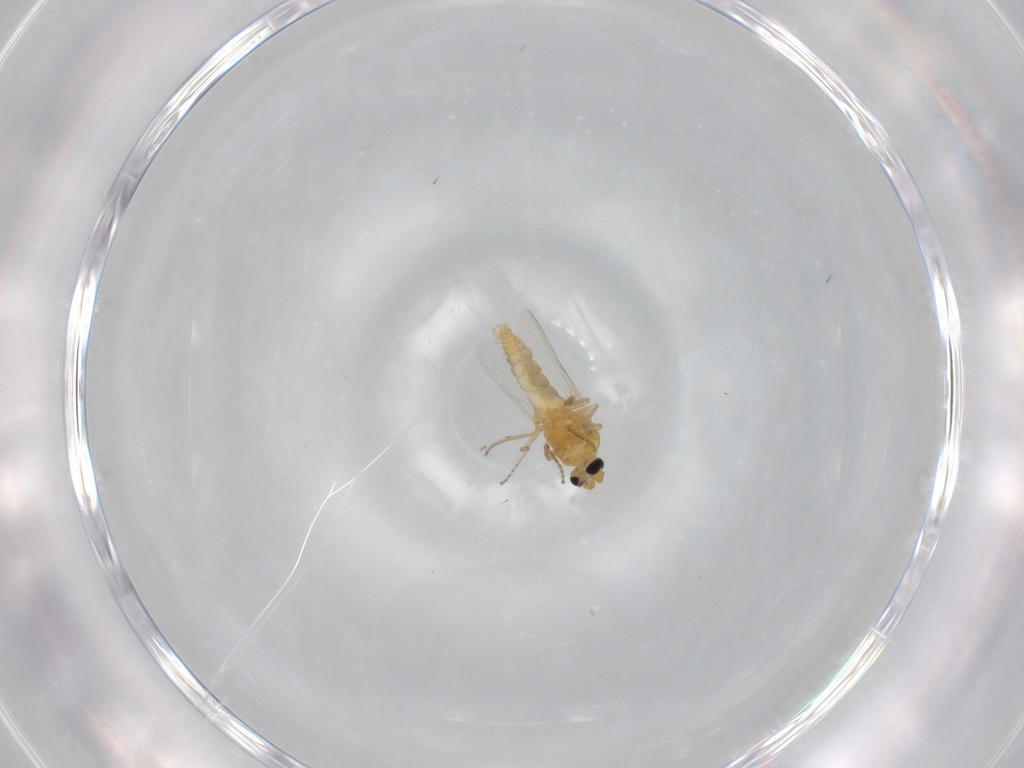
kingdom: Animalia
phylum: Arthropoda
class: Insecta
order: Diptera
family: Ceratopogonidae
